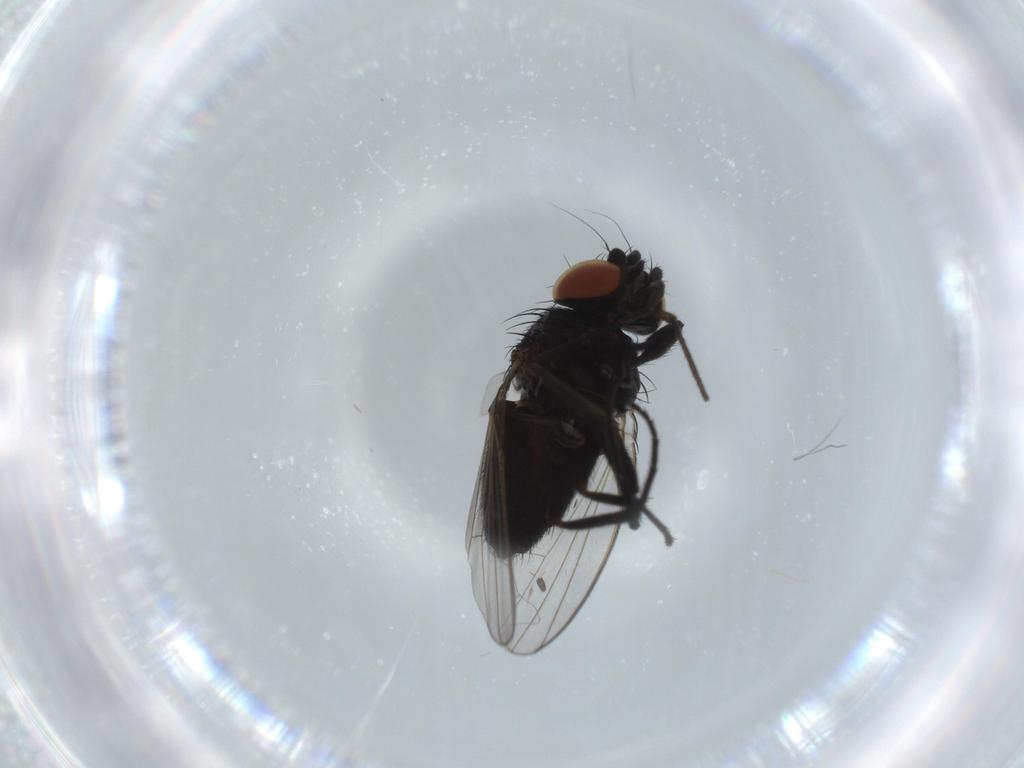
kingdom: Animalia
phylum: Arthropoda
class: Insecta
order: Diptera
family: Milichiidae
